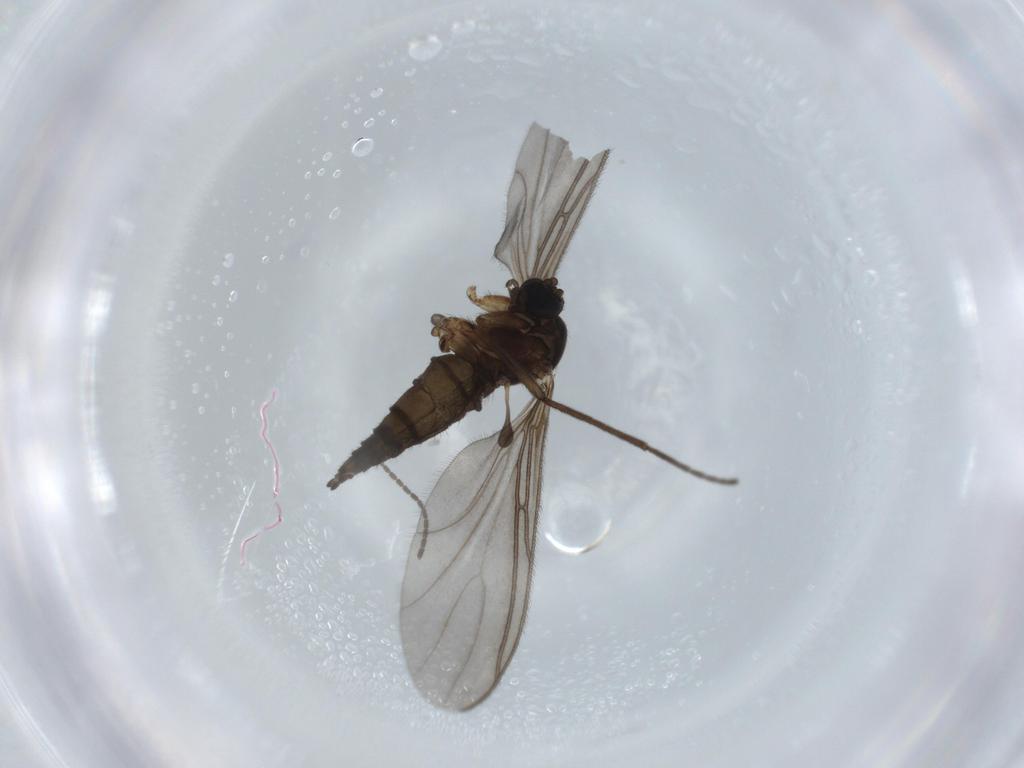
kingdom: Animalia
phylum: Arthropoda
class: Insecta
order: Diptera
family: Sciaridae
